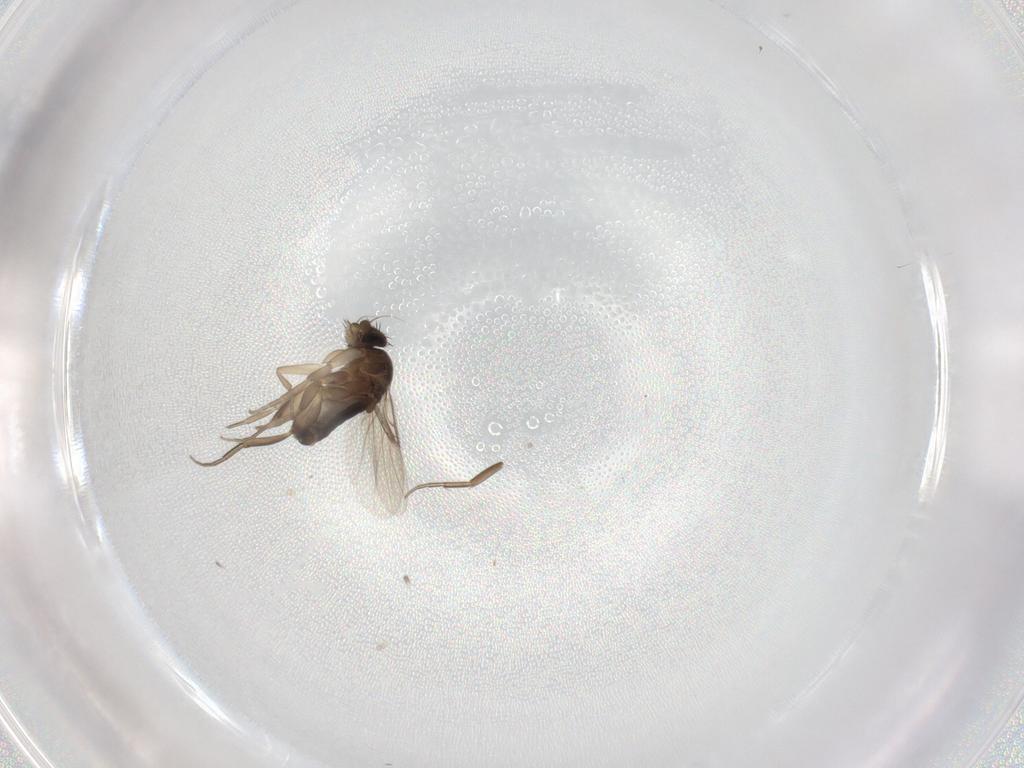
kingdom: Animalia
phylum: Arthropoda
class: Insecta
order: Diptera
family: Phoridae
